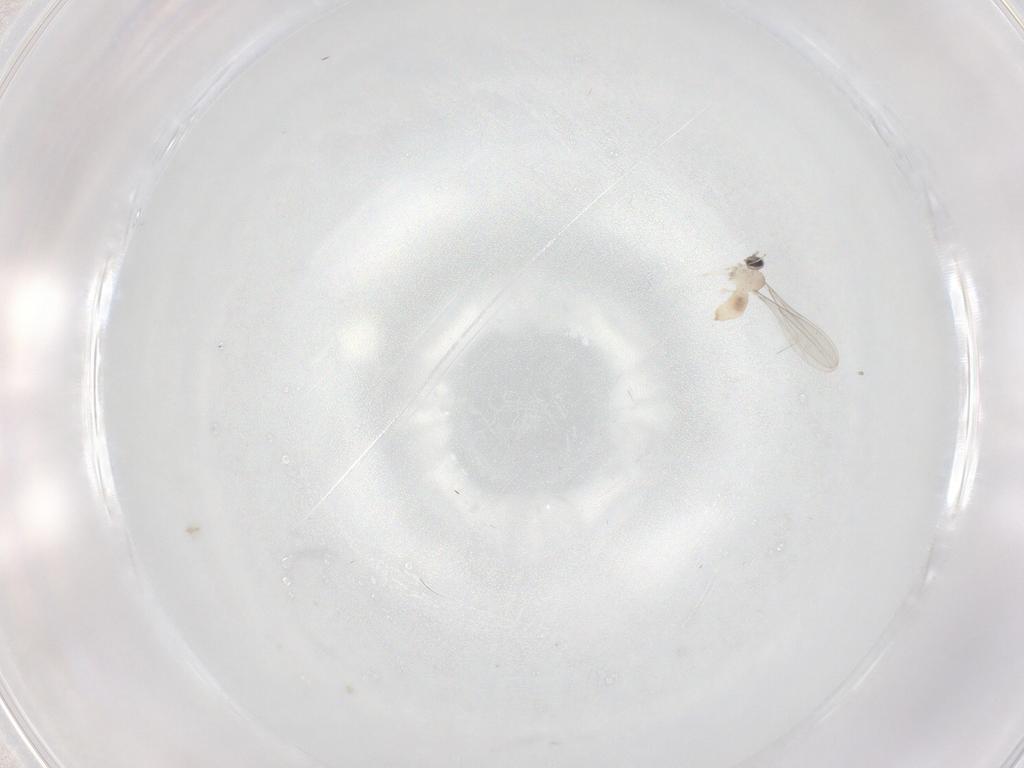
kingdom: Animalia
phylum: Arthropoda
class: Insecta
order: Diptera
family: Cecidomyiidae
